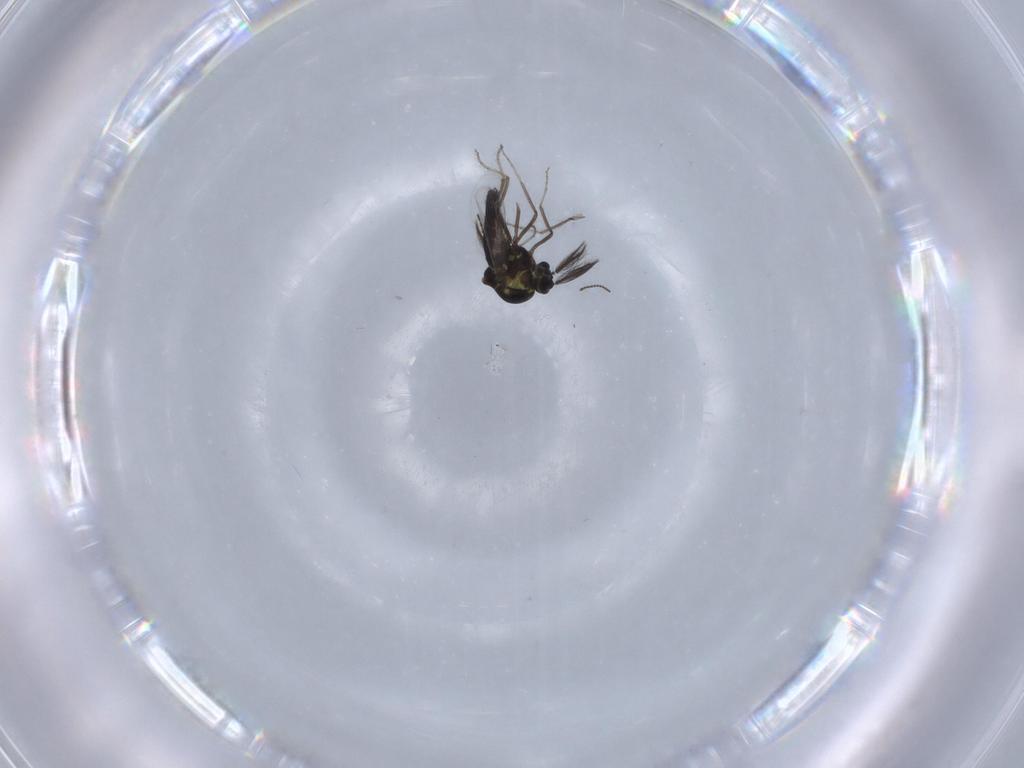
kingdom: Animalia
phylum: Arthropoda
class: Insecta
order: Diptera
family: Ceratopogonidae
